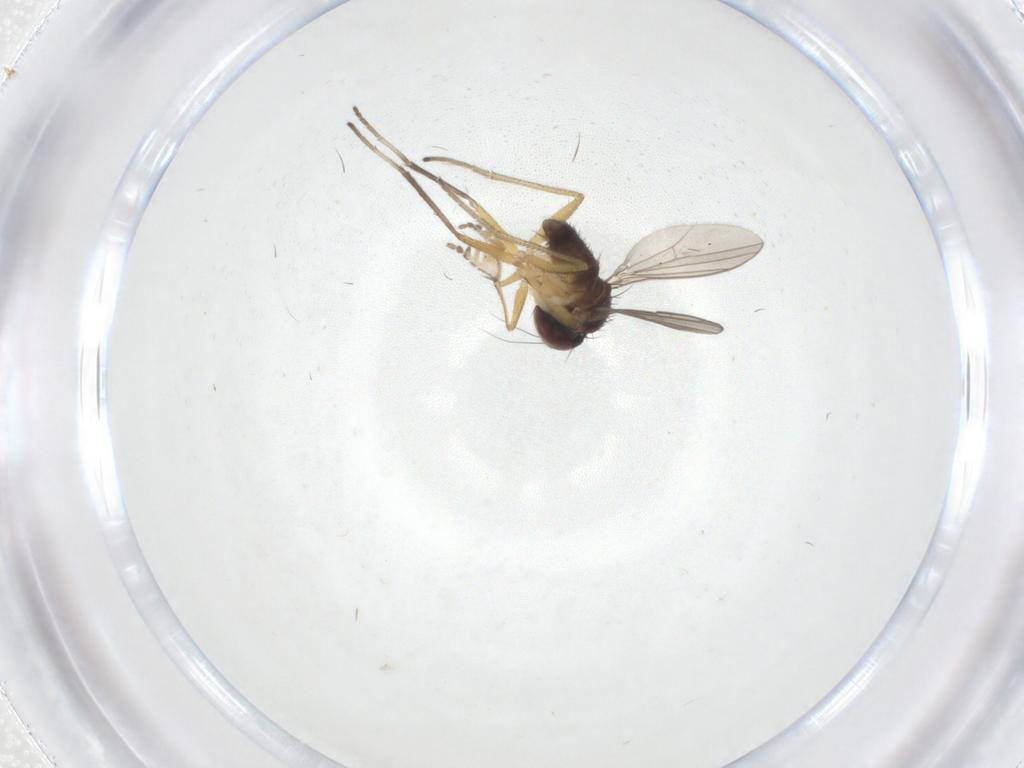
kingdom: Animalia
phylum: Arthropoda
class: Insecta
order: Diptera
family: Dolichopodidae
